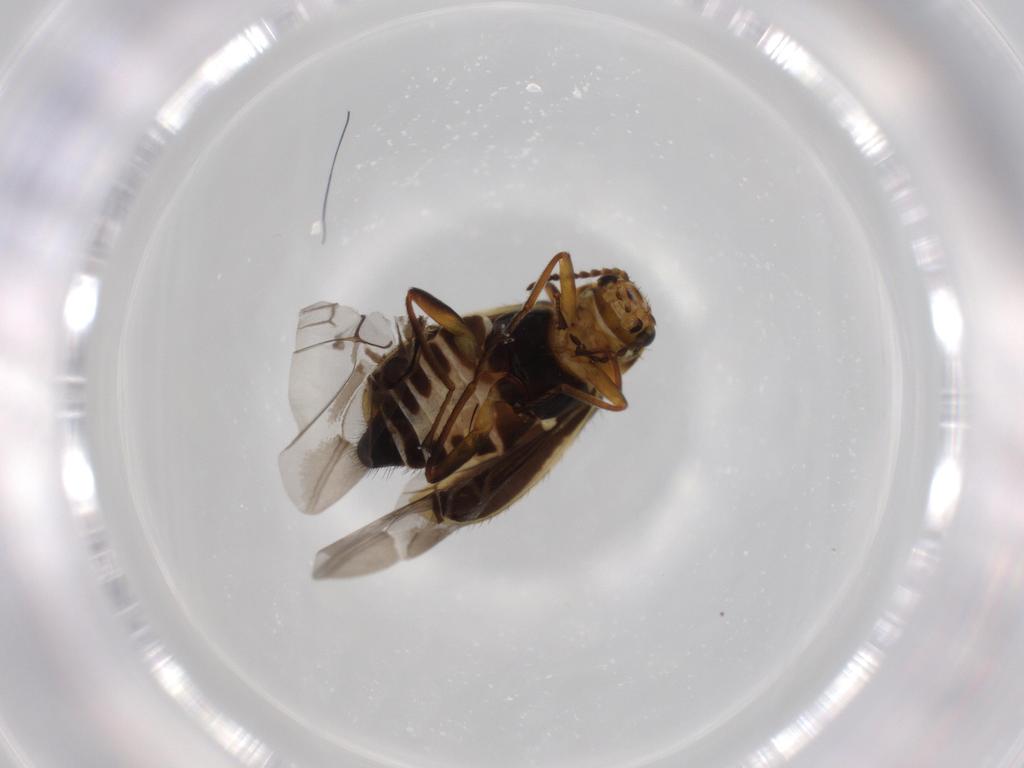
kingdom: Animalia
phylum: Arthropoda
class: Insecta
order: Coleoptera
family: Melyridae
